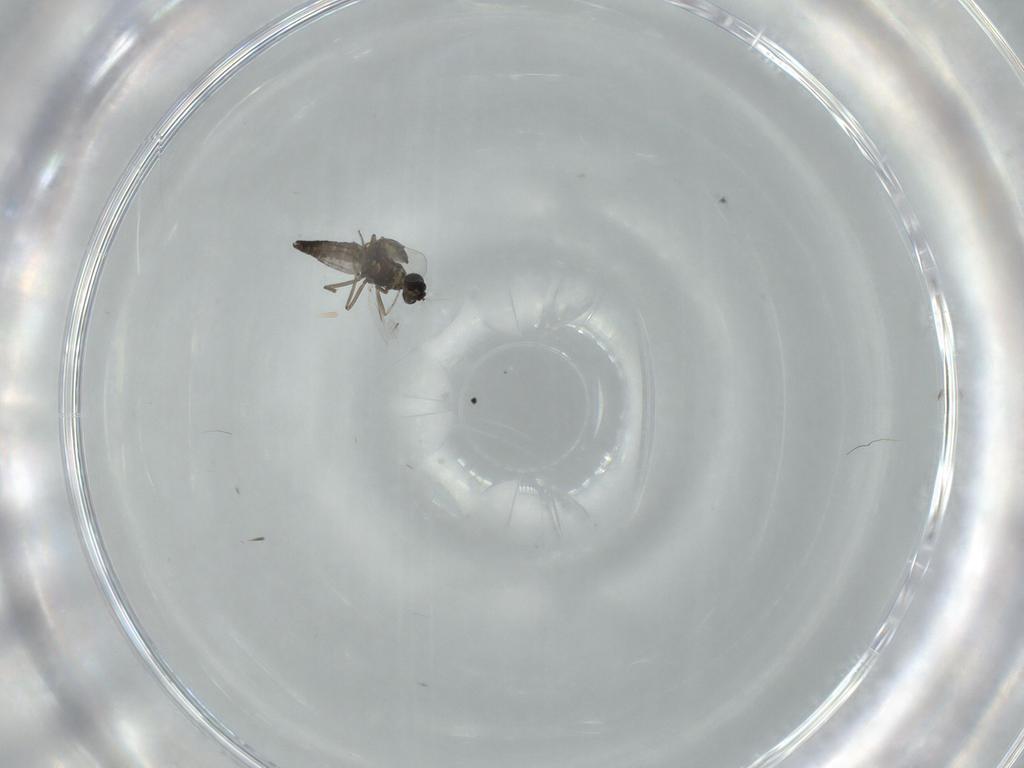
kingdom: Animalia
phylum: Arthropoda
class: Insecta
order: Diptera
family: Ceratopogonidae
